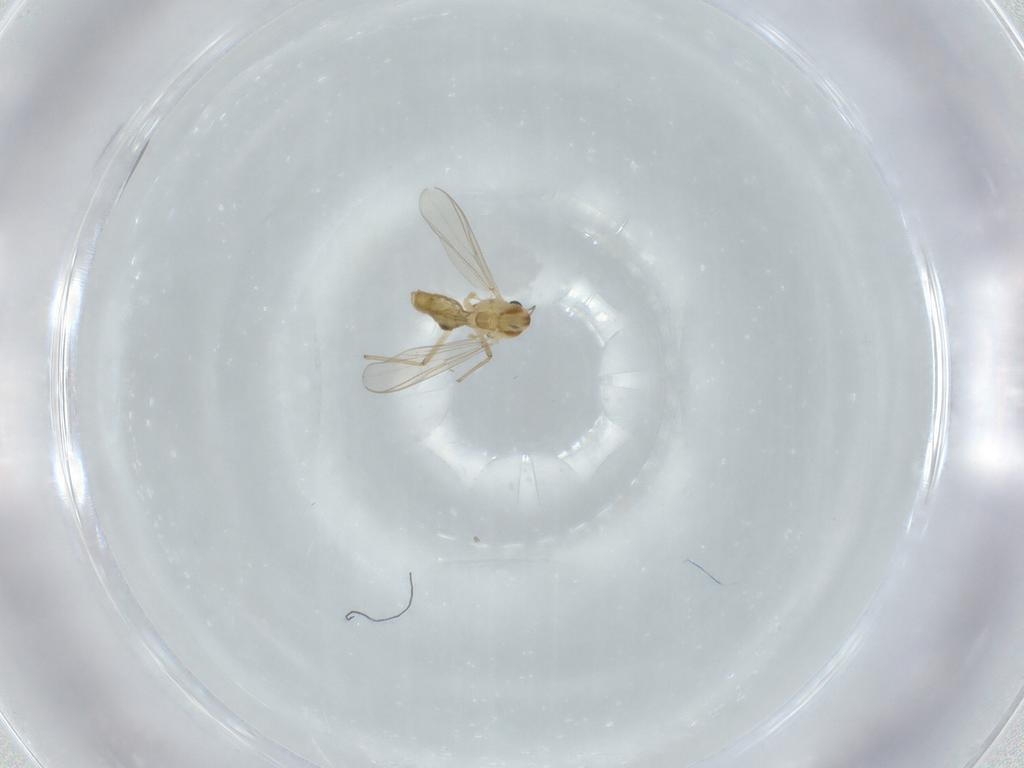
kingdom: Animalia
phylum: Arthropoda
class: Insecta
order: Diptera
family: Chironomidae
